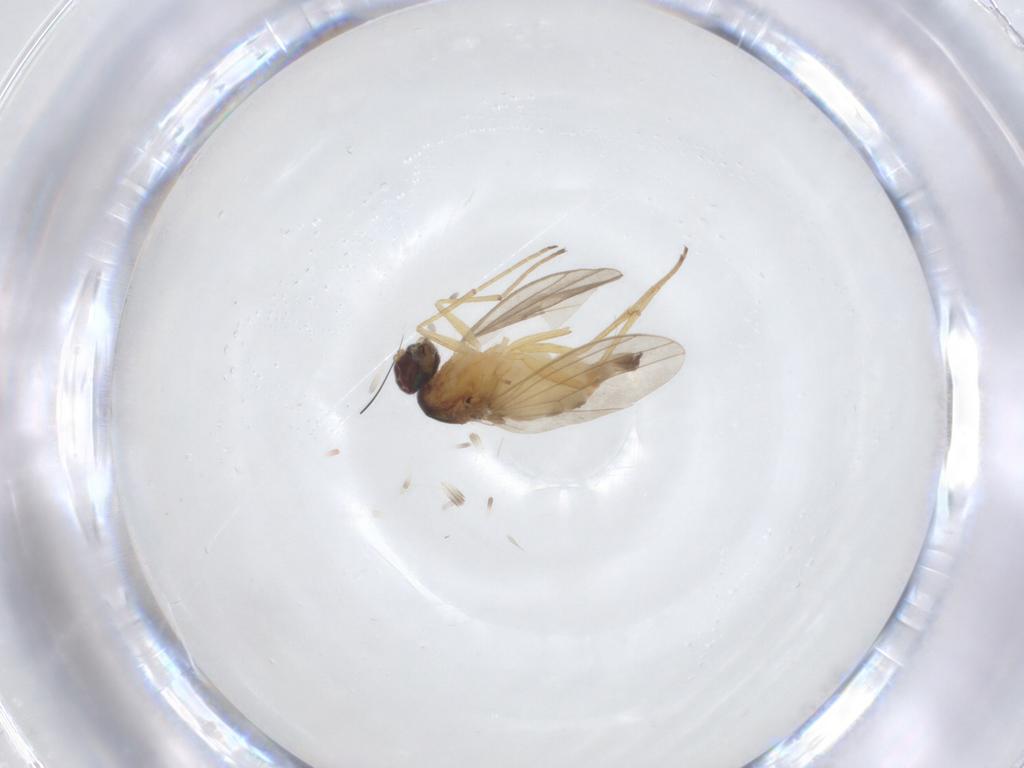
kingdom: Animalia
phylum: Arthropoda
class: Insecta
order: Diptera
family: Dolichopodidae
